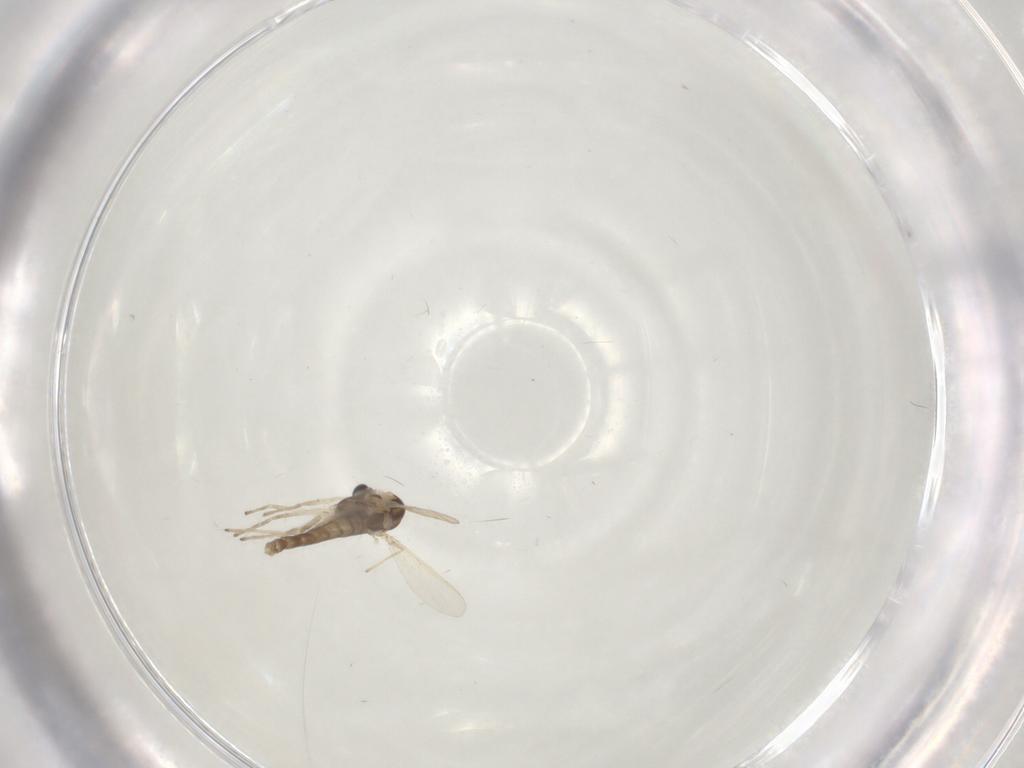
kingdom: Animalia
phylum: Arthropoda
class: Insecta
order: Diptera
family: Chironomidae
